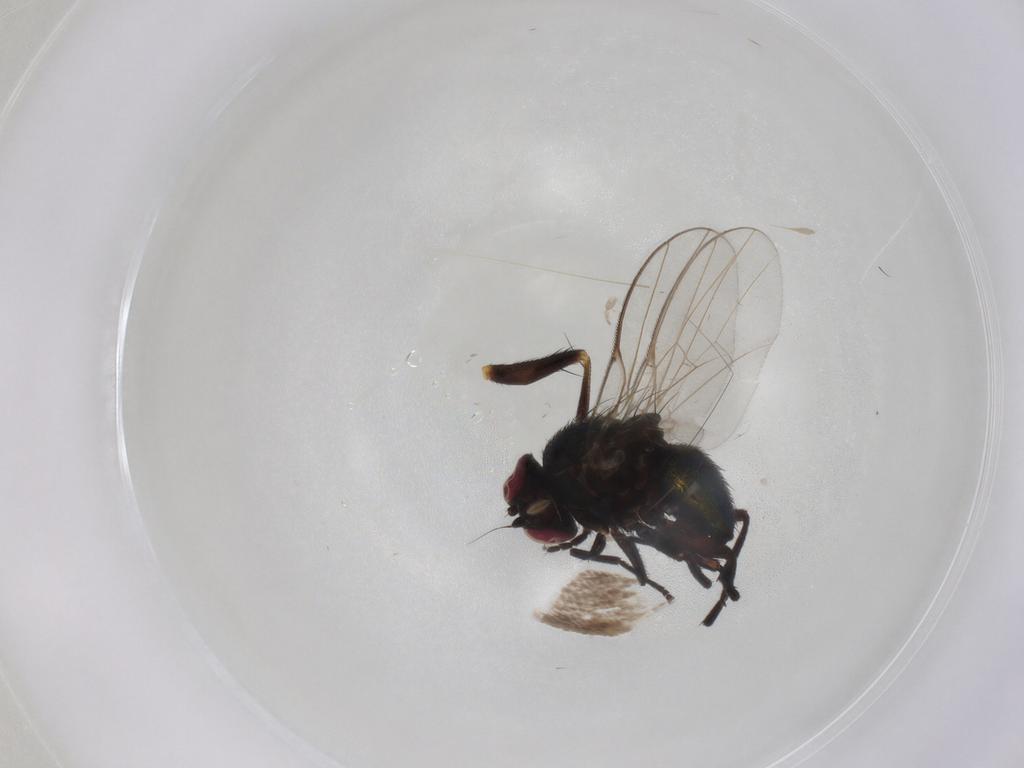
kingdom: Animalia
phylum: Arthropoda
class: Insecta
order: Diptera
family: Muscidae
